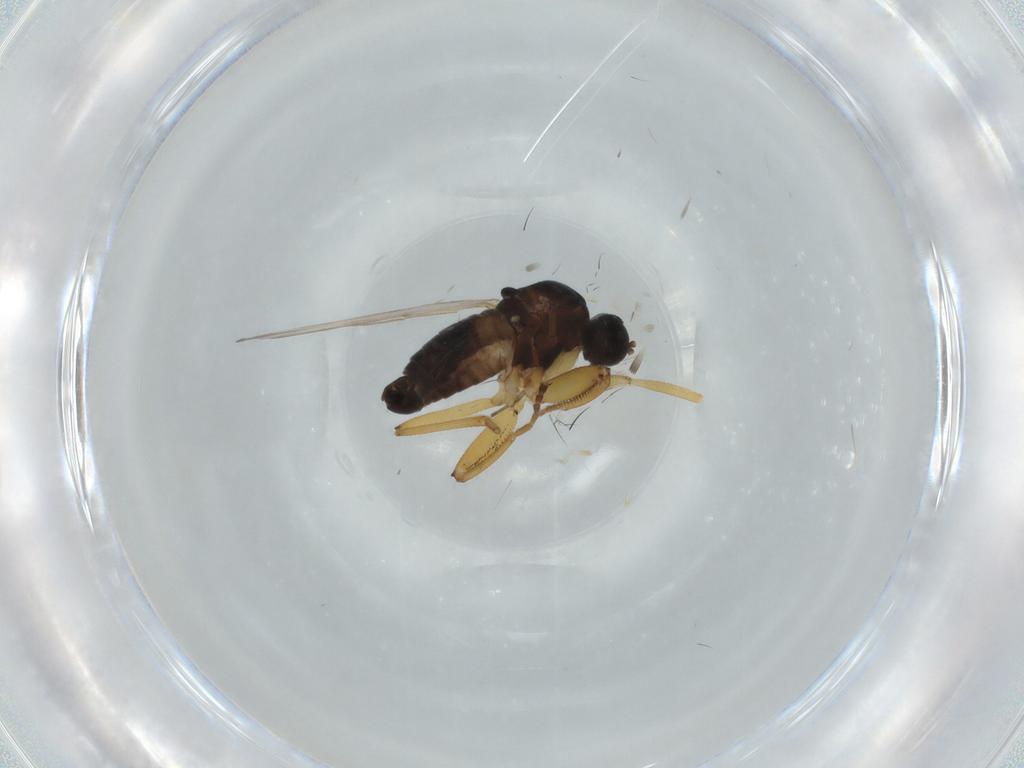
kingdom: Animalia
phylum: Arthropoda
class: Insecta
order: Diptera
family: Hybotidae
